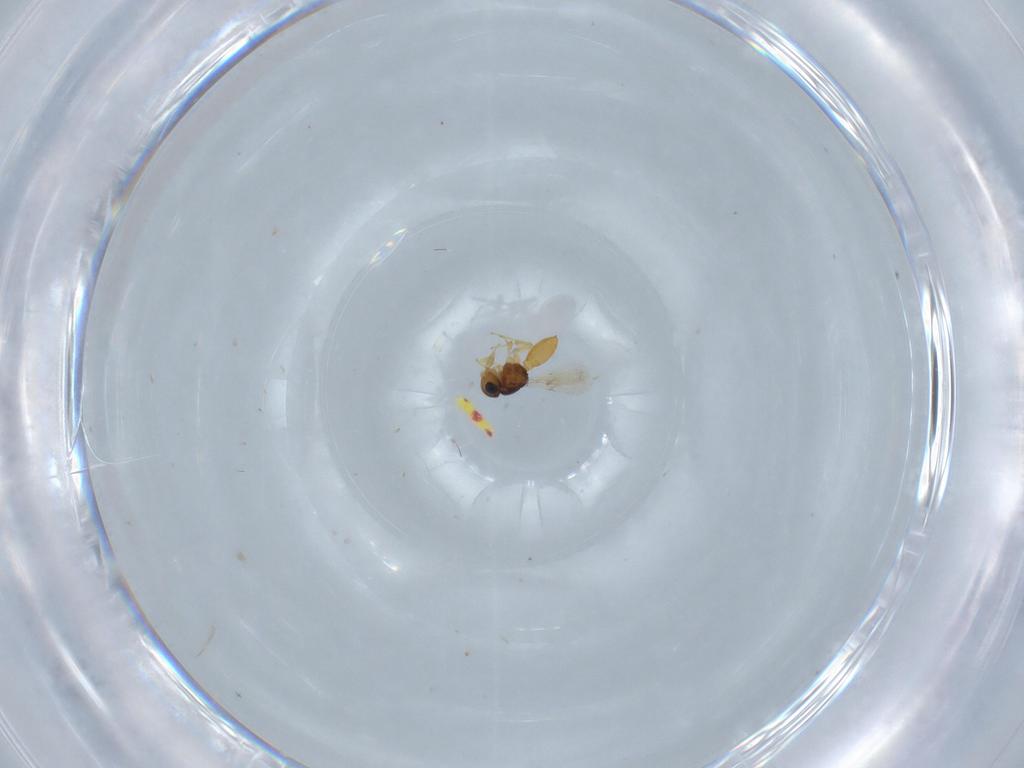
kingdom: Animalia
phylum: Arthropoda
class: Insecta
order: Hymenoptera
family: Scelionidae
